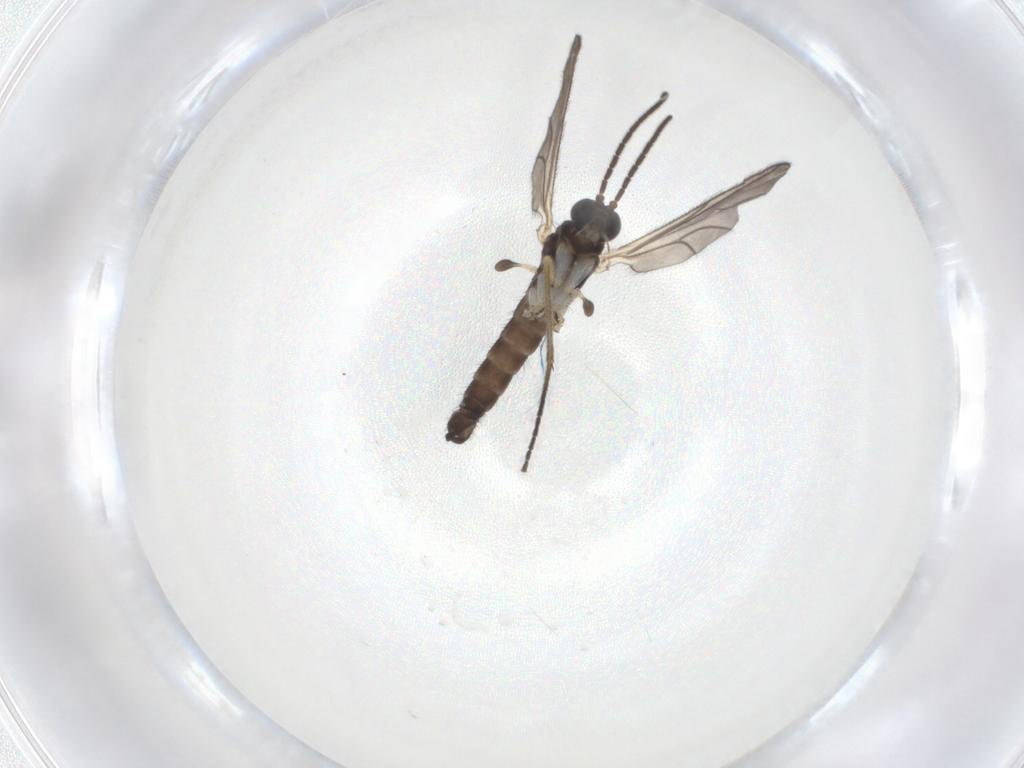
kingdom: Animalia
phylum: Arthropoda
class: Insecta
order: Diptera
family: Sciaridae
